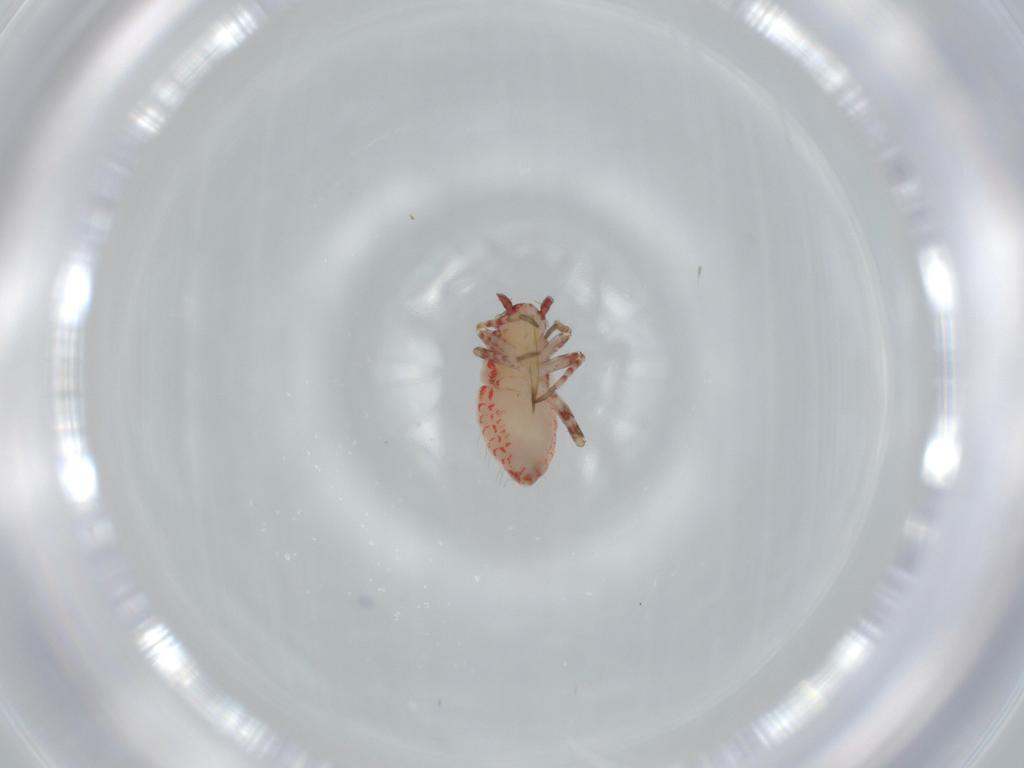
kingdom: Animalia
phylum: Arthropoda
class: Insecta
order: Hemiptera
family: Miridae
